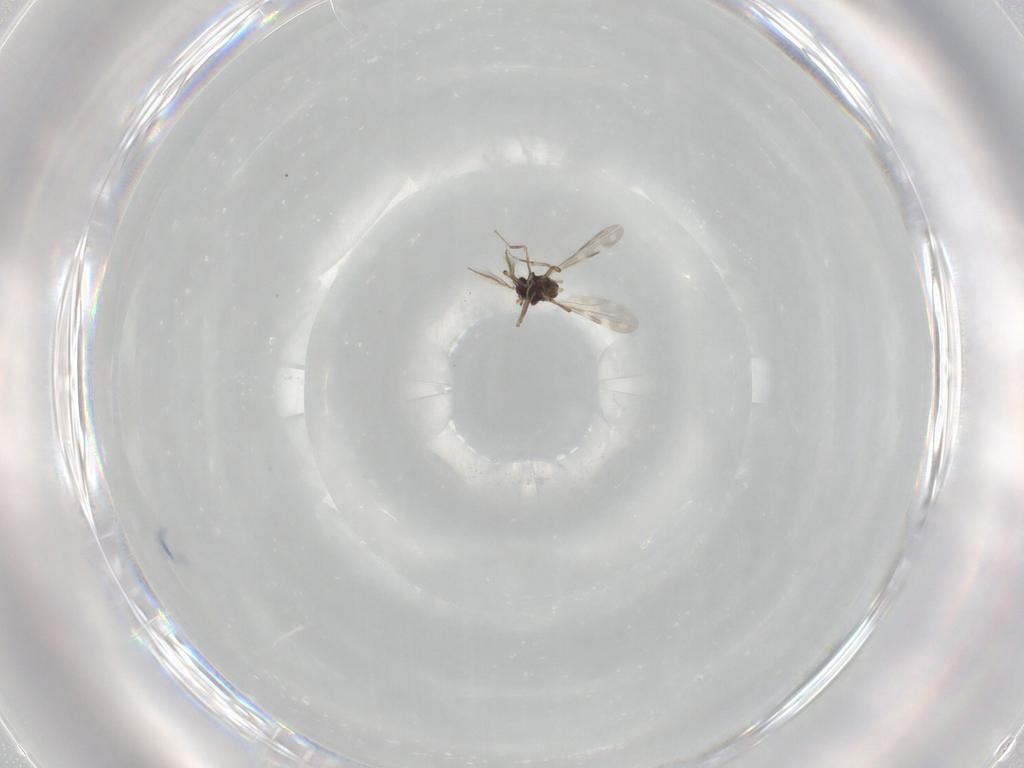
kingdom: Animalia
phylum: Arthropoda
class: Insecta
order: Diptera
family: Ceratopogonidae
